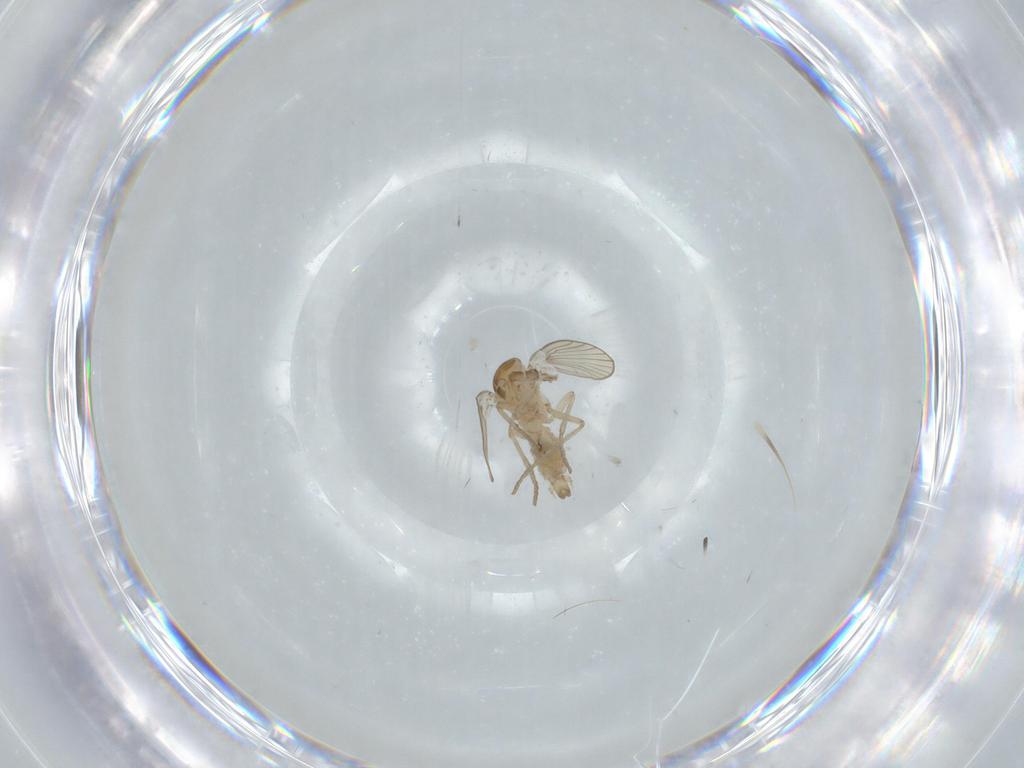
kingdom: Animalia
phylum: Arthropoda
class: Insecta
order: Diptera
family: Psychodidae
